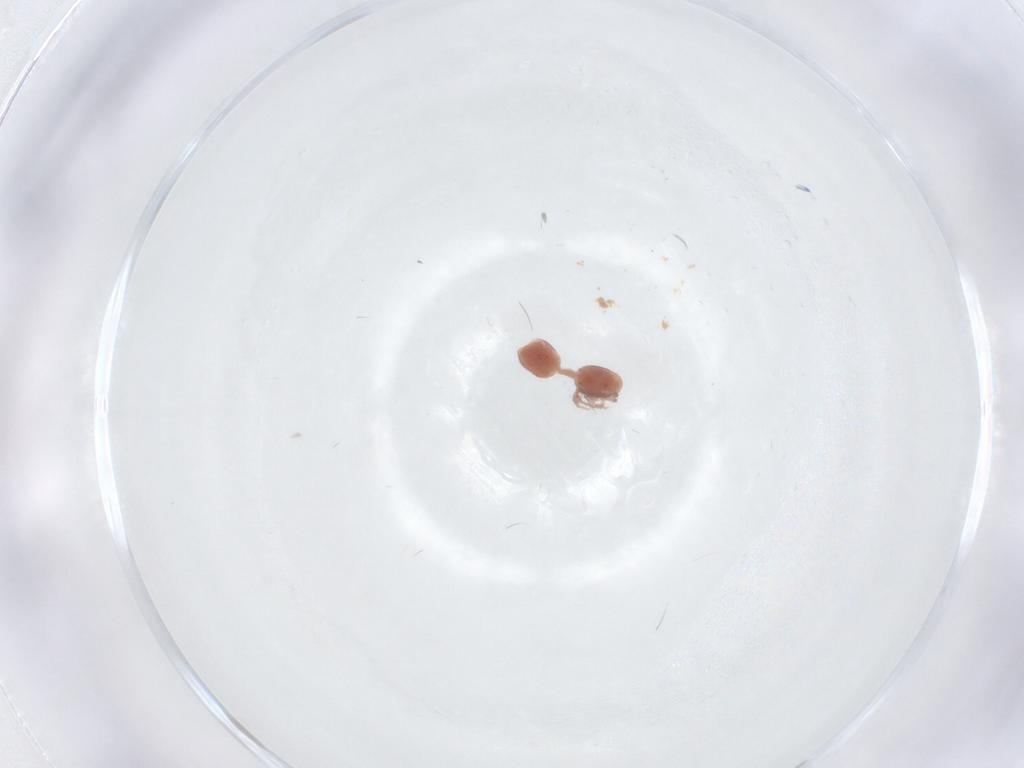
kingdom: Animalia
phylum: Arthropoda
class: Arachnida
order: Trombidiformes
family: Lebertiidae
